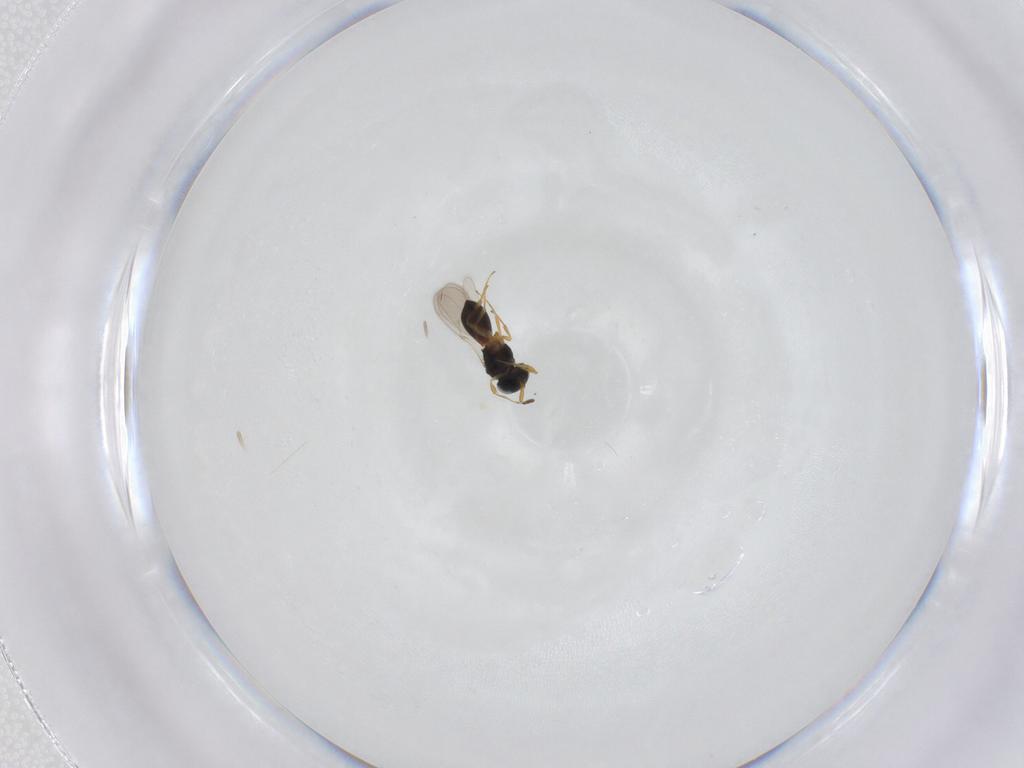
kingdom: Animalia
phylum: Arthropoda
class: Insecta
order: Hymenoptera
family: Scelionidae
